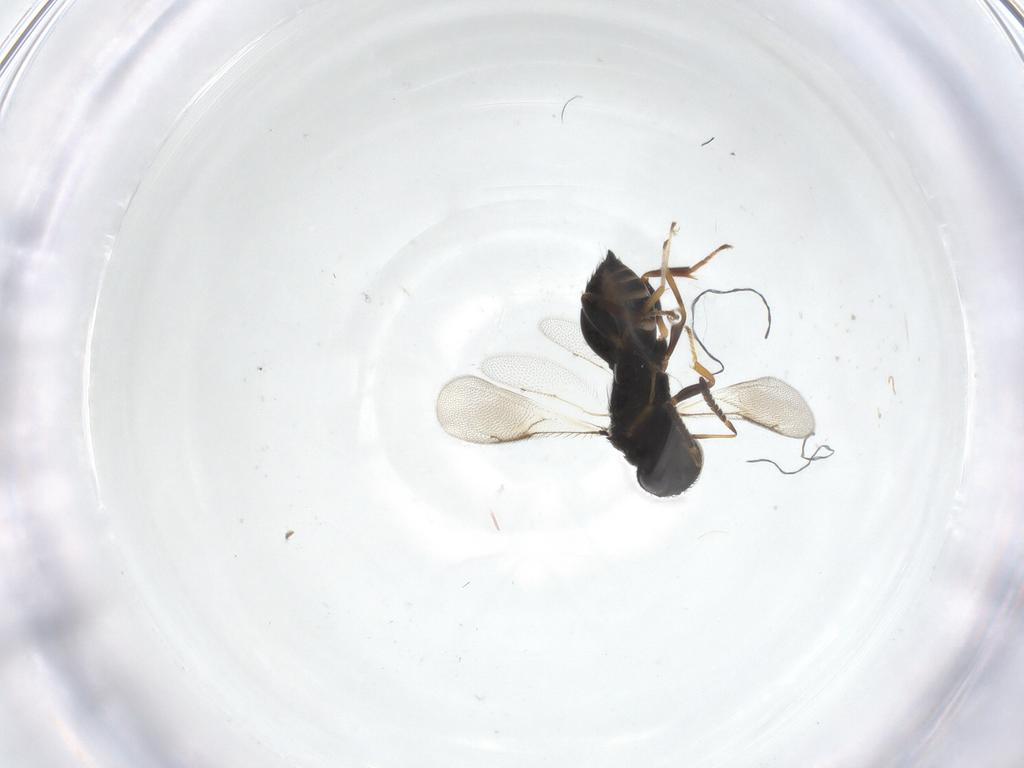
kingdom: Animalia
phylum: Arthropoda
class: Insecta
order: Hymenoptera
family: Pteromalidae
